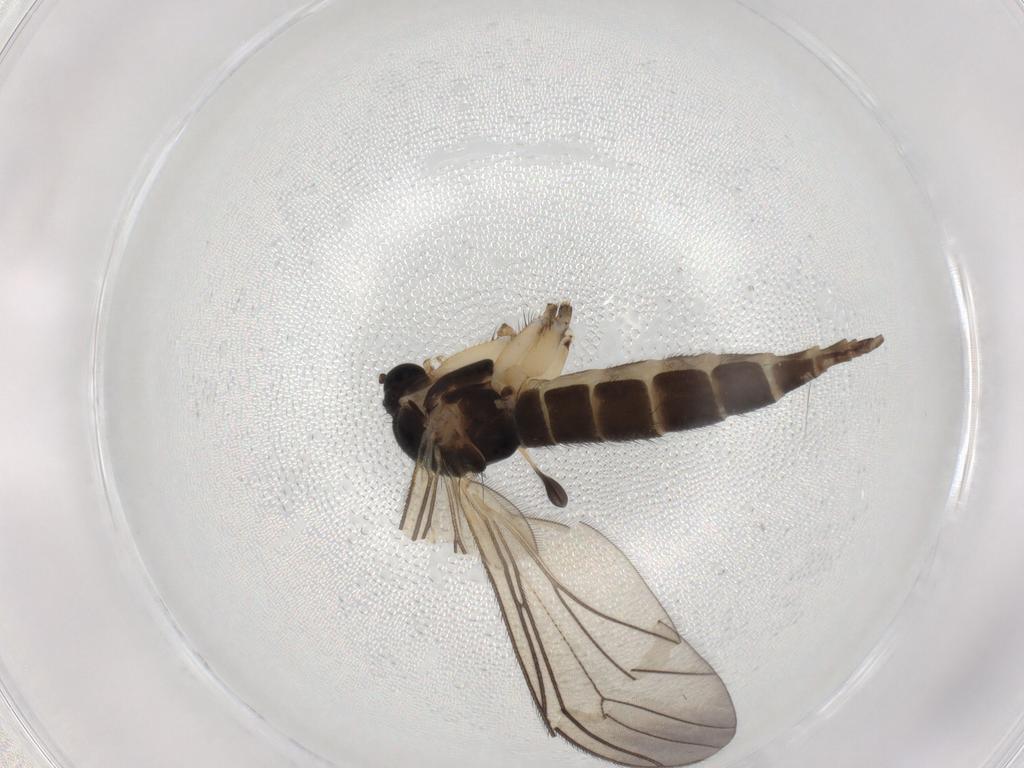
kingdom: Animalia
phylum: Arthropoda
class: Insecta
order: Diptera
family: Sciaridae
